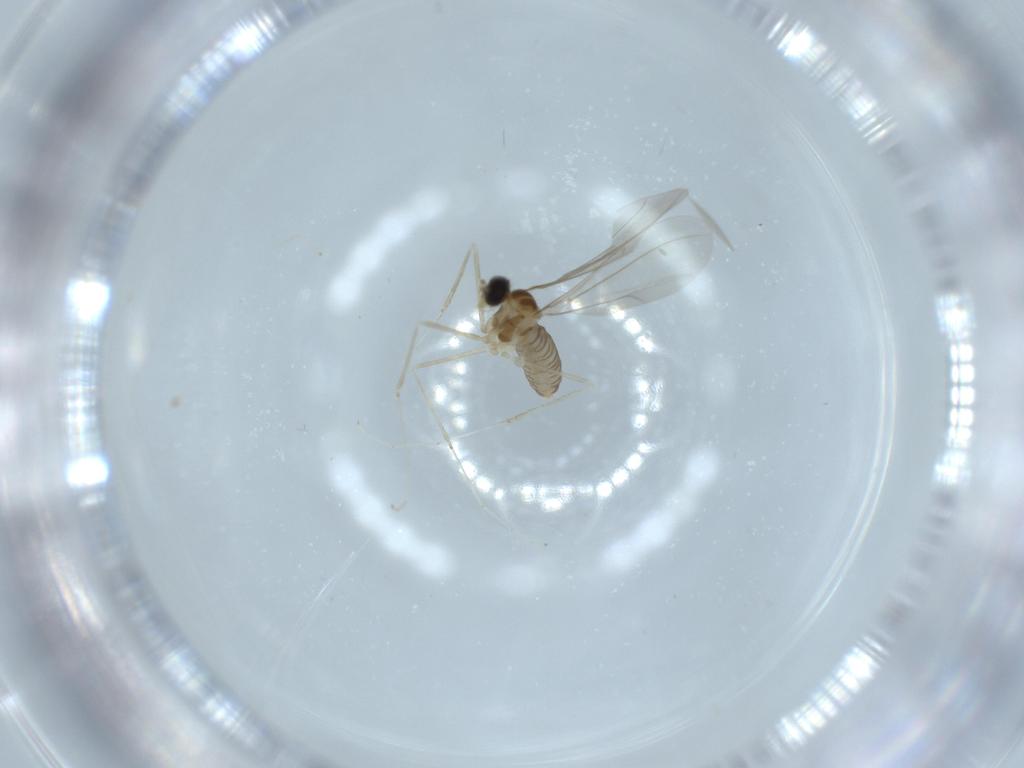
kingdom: Animalia
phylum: Arthropoda
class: Insecta
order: Diptera
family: Cecidomyiidae
